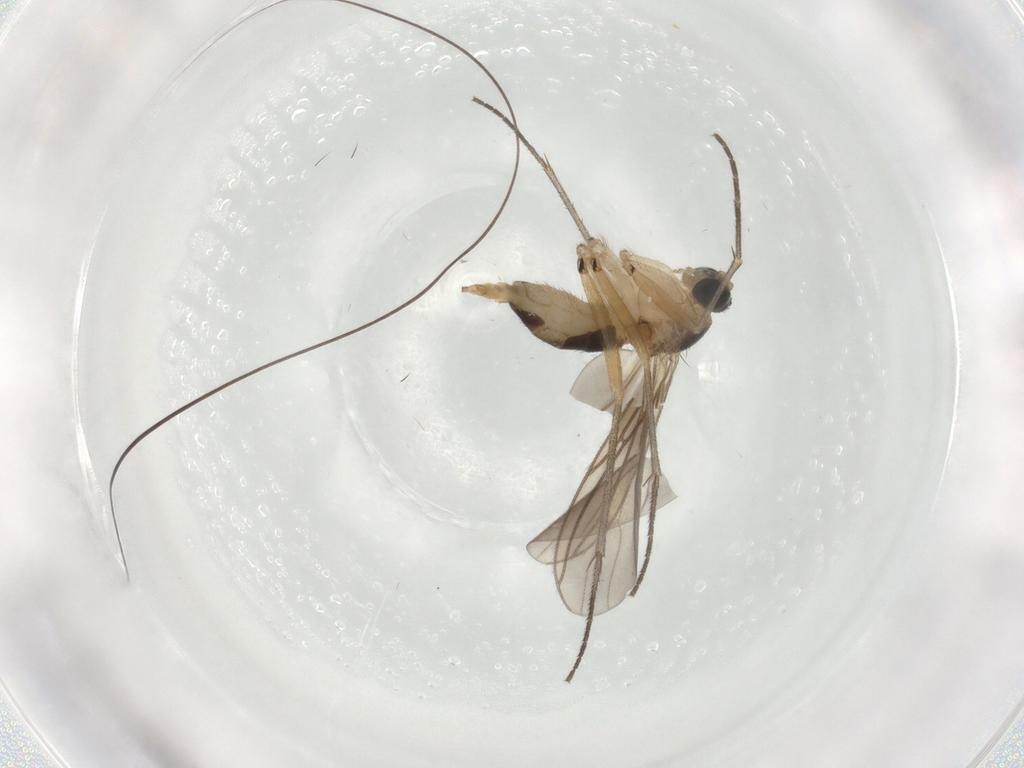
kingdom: Animalia
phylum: Arthropoda
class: Insecta
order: Diptera
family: Sciaridae
